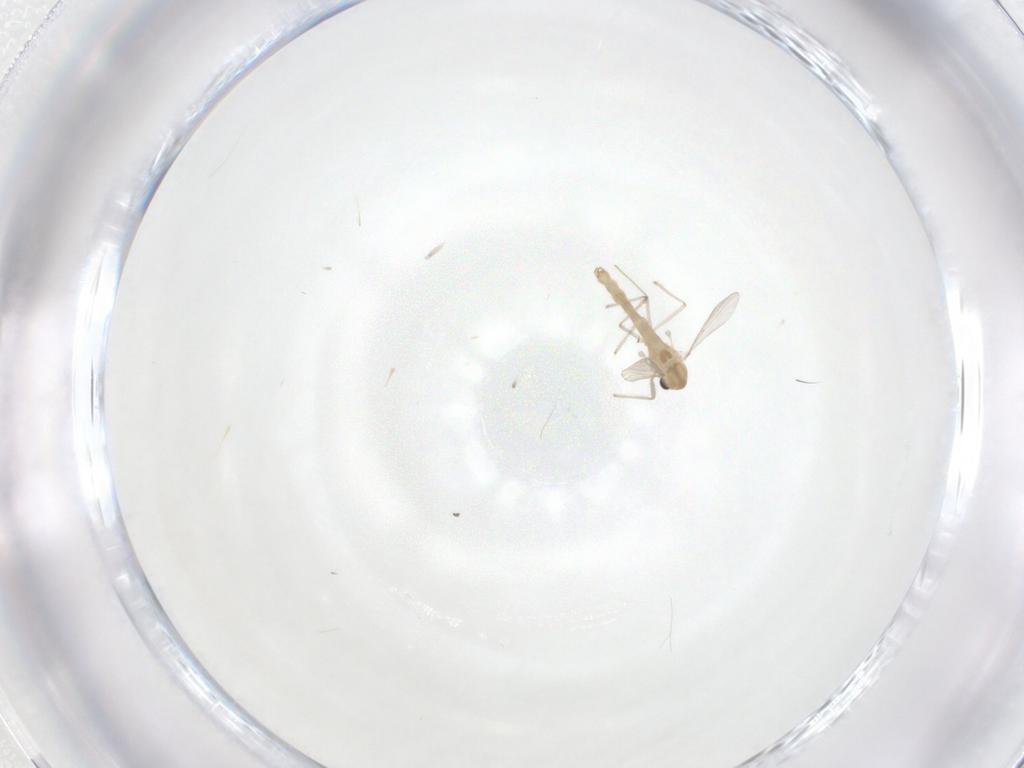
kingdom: Animalia
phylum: Arthropoda
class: Insecta
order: Diptera
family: Chironomidae
